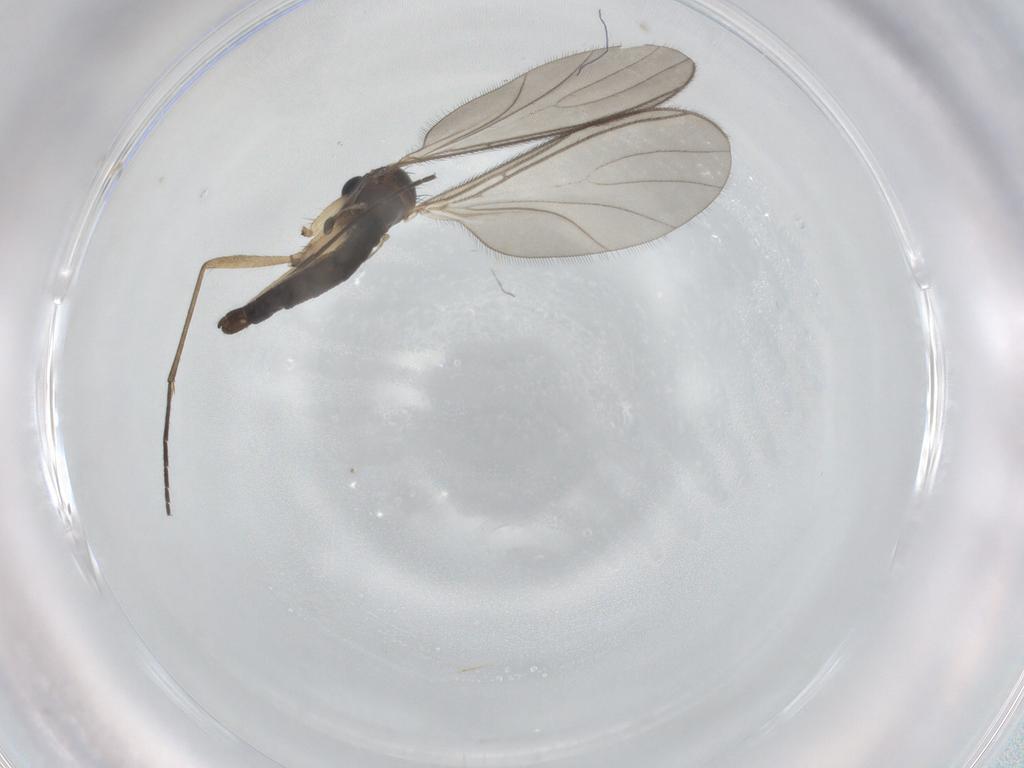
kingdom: Animalia
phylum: Arthropoda
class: Insecta
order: Diptera
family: Sciaridae
